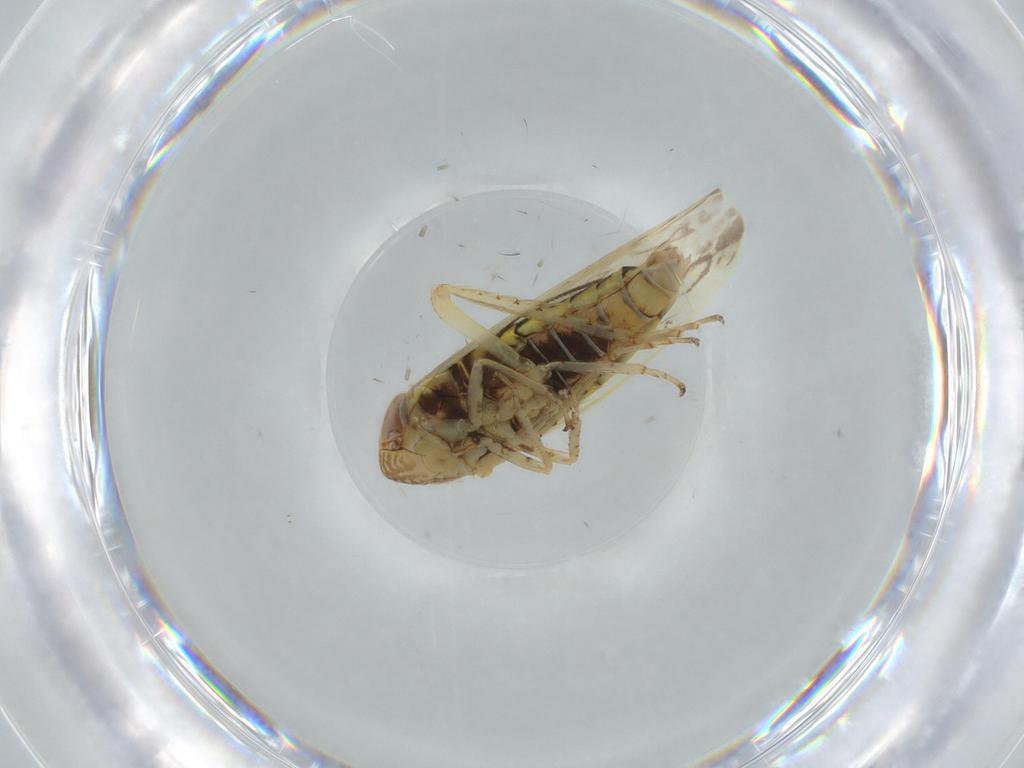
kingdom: Animalia
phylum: Arthropoda
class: Insecta
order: Hemiptera
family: Cicadellidae
